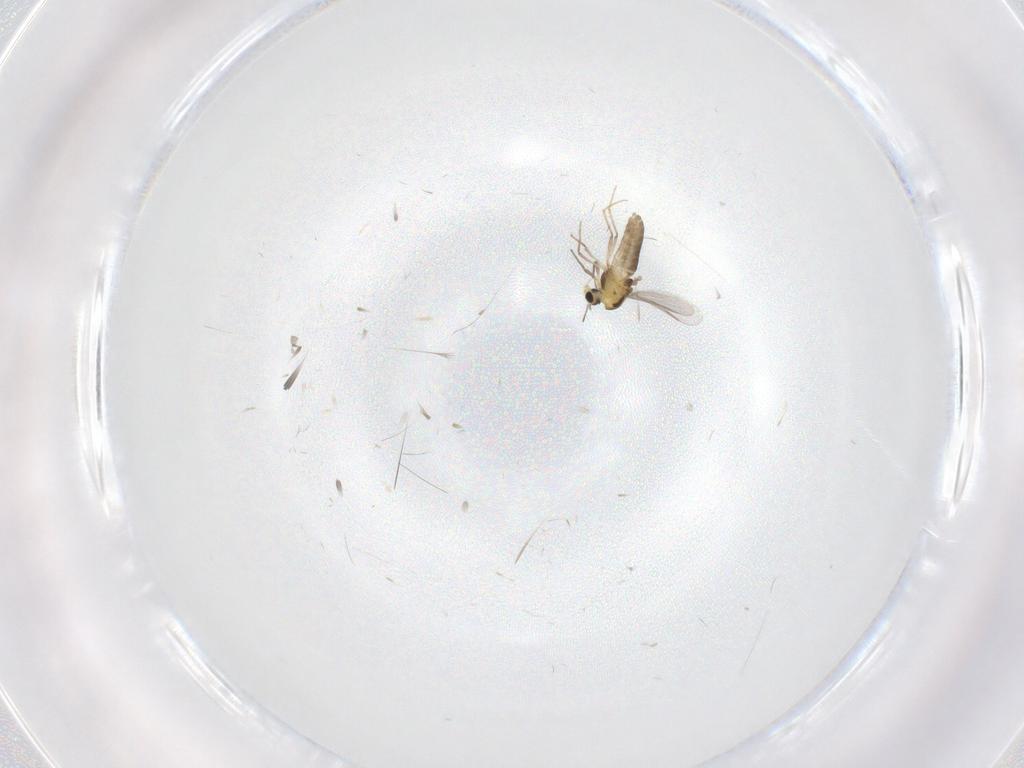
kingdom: Animalia
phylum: Arthropoda
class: Insecta
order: Diptera
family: Chironomidae
